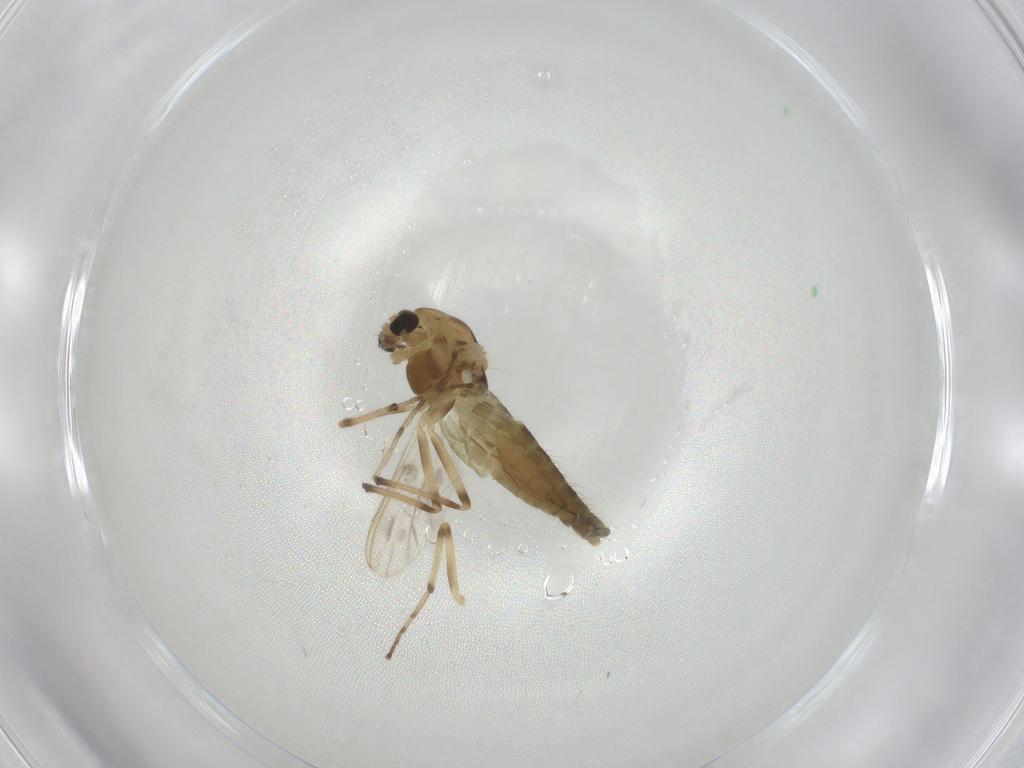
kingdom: Animalia
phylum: Arthropoda
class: Insecta
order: Diptera
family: Chironomidae
